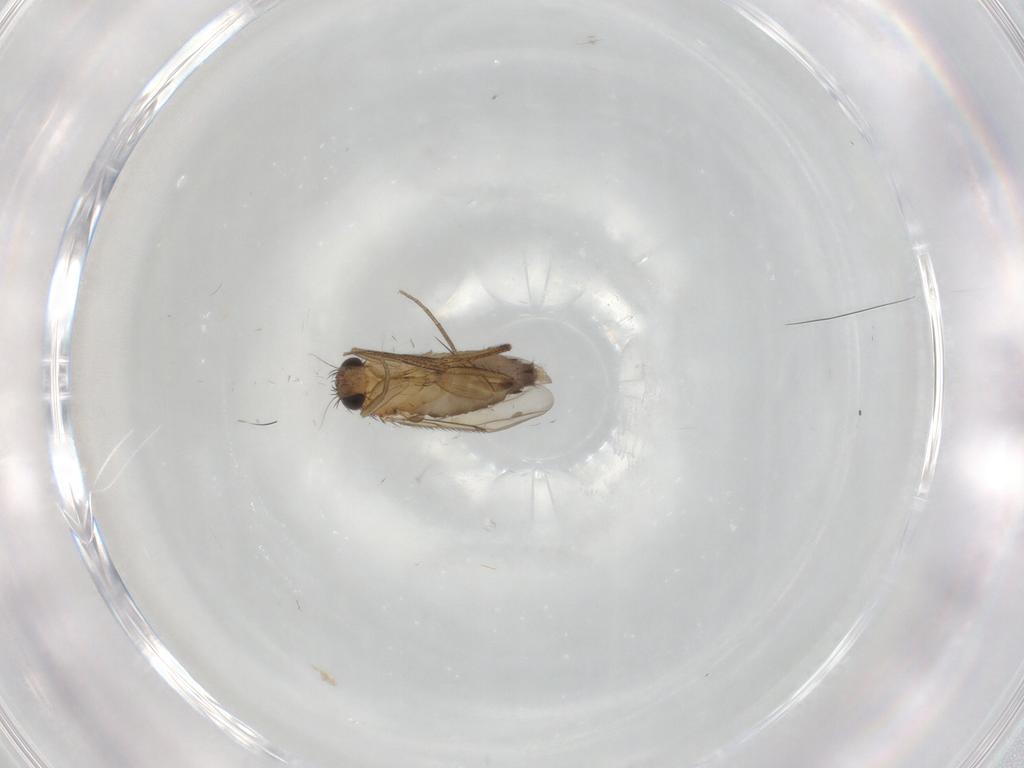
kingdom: Animalia
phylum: Arthropoda
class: Insecta
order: Diptera
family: Phoridae
